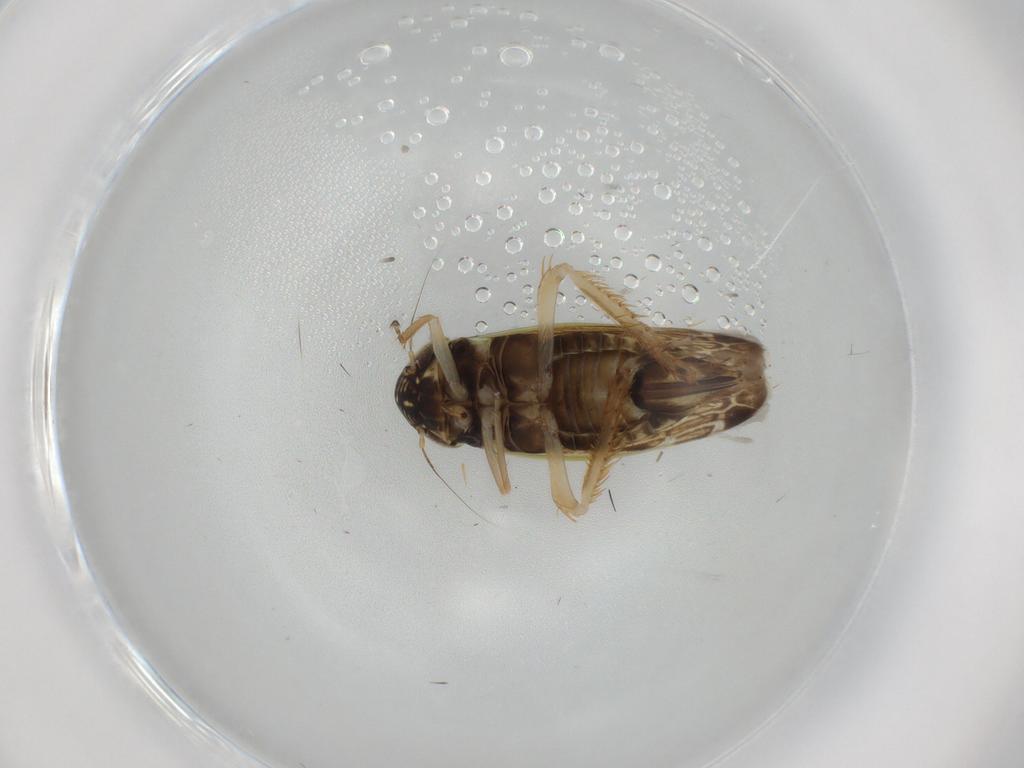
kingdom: Animalia
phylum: Arthropoda
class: Insecta
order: Hemiptera
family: Cicadellidae
